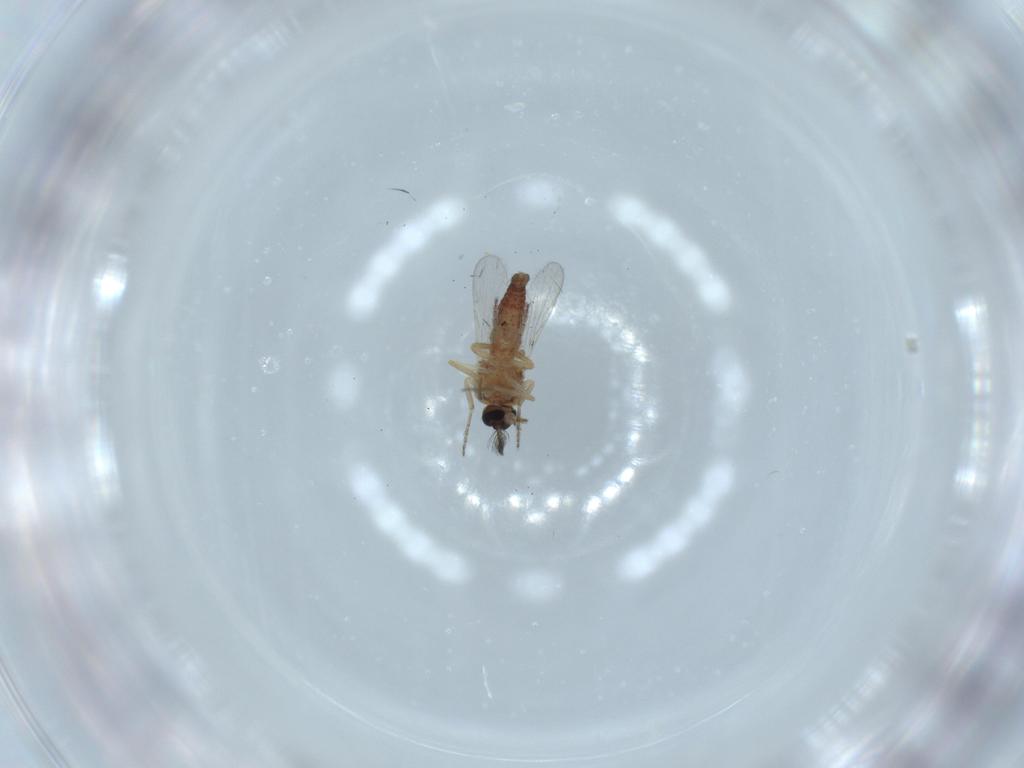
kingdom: Animalia
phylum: Arthropoda
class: Insecta
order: Diptera
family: Ceratopogonidae
